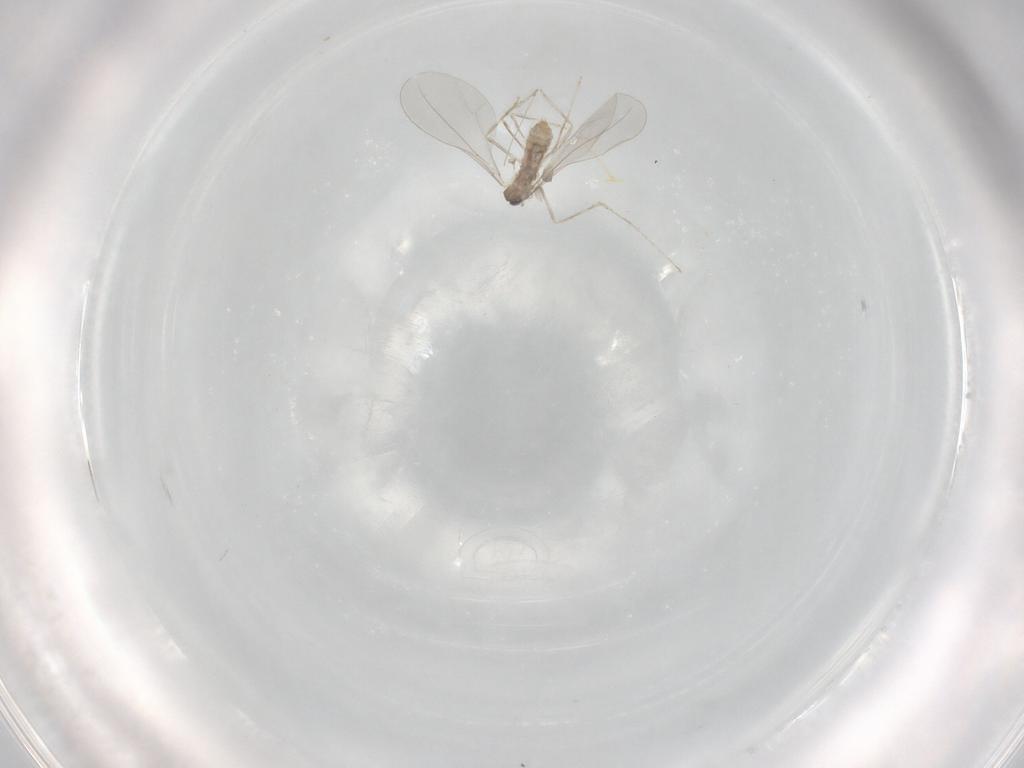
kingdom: Animalia
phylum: Arthropoda
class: Insecta
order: Diptera
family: Cecidomyiidae
